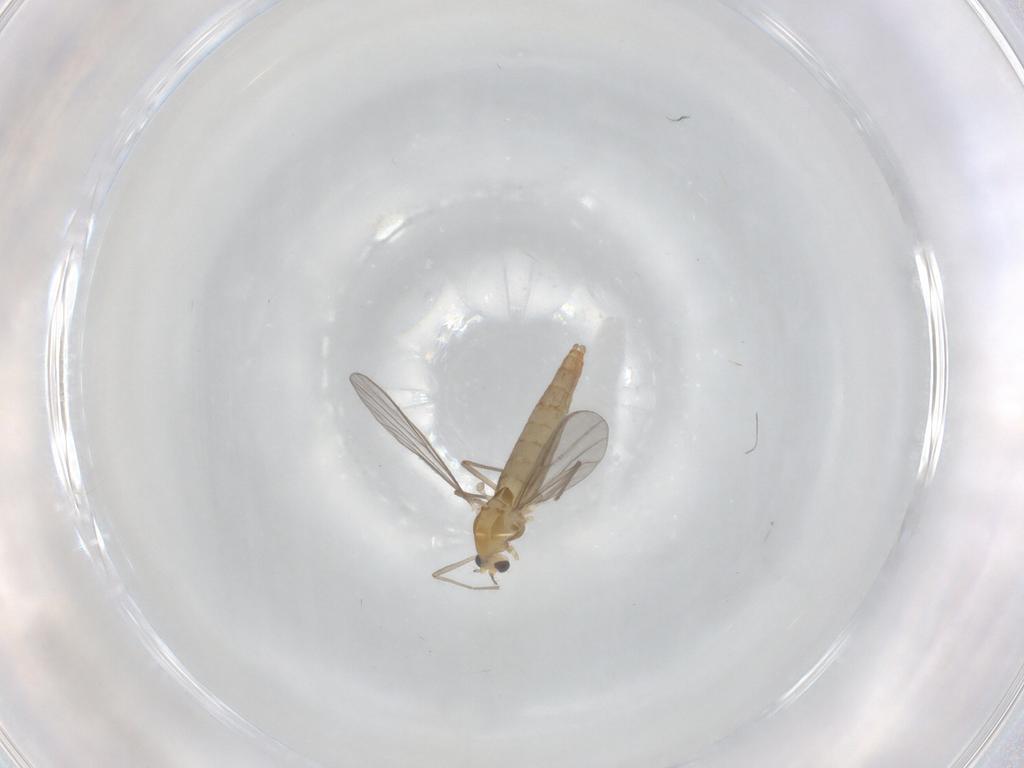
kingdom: Animalia
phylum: Arthropoda
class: Insecta
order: Diptera
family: Chironomidae
